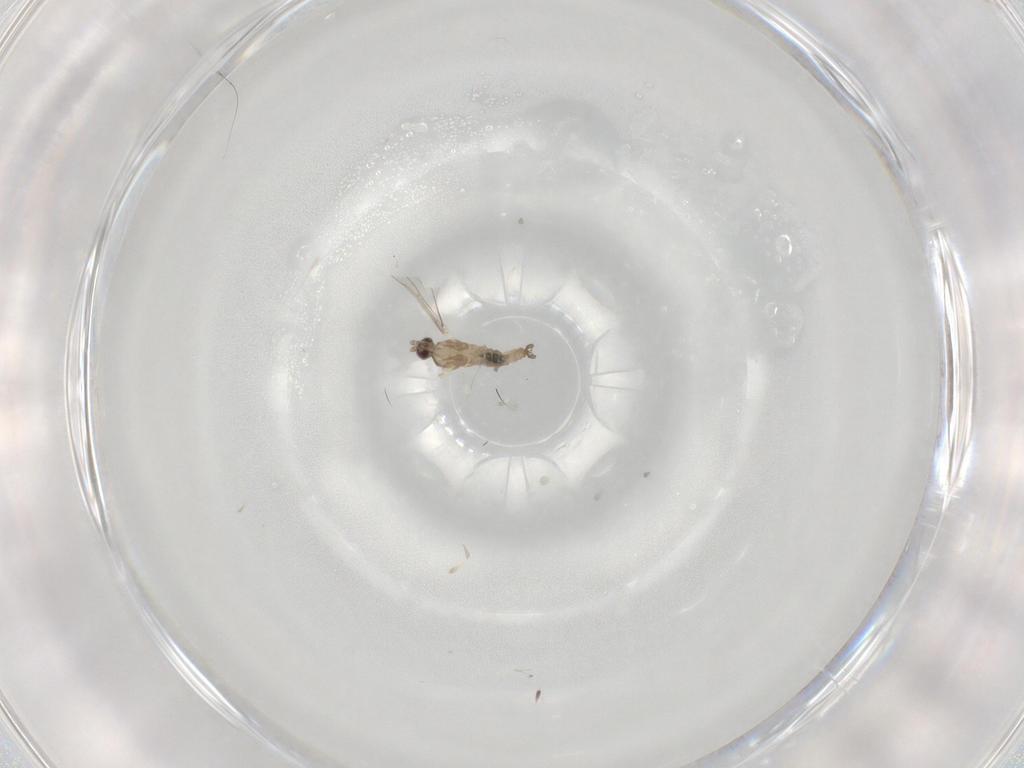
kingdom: Animalia
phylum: Arthropoda
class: Insecta
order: Diptera
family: Cecidomyiidae
